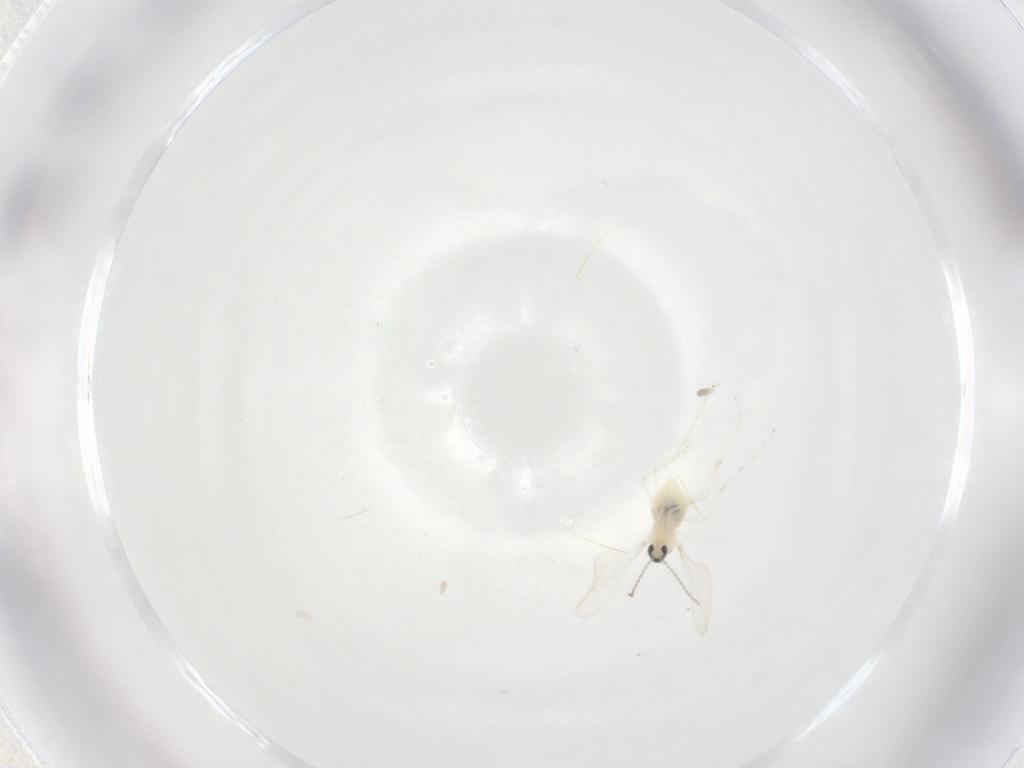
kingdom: Animalia
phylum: Arthropoda
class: Insecta
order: Diptera
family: Cecidomyiidae
